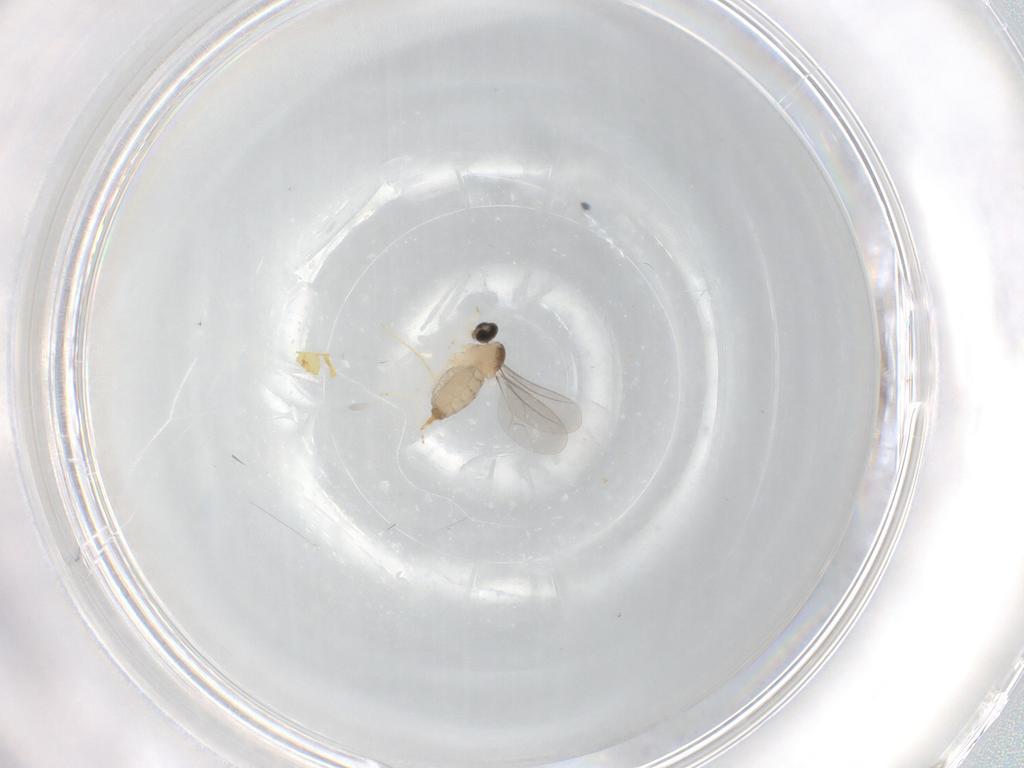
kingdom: Animalia
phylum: Arthropoda
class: Insecta
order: Diptera
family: Cecidomyiidae
